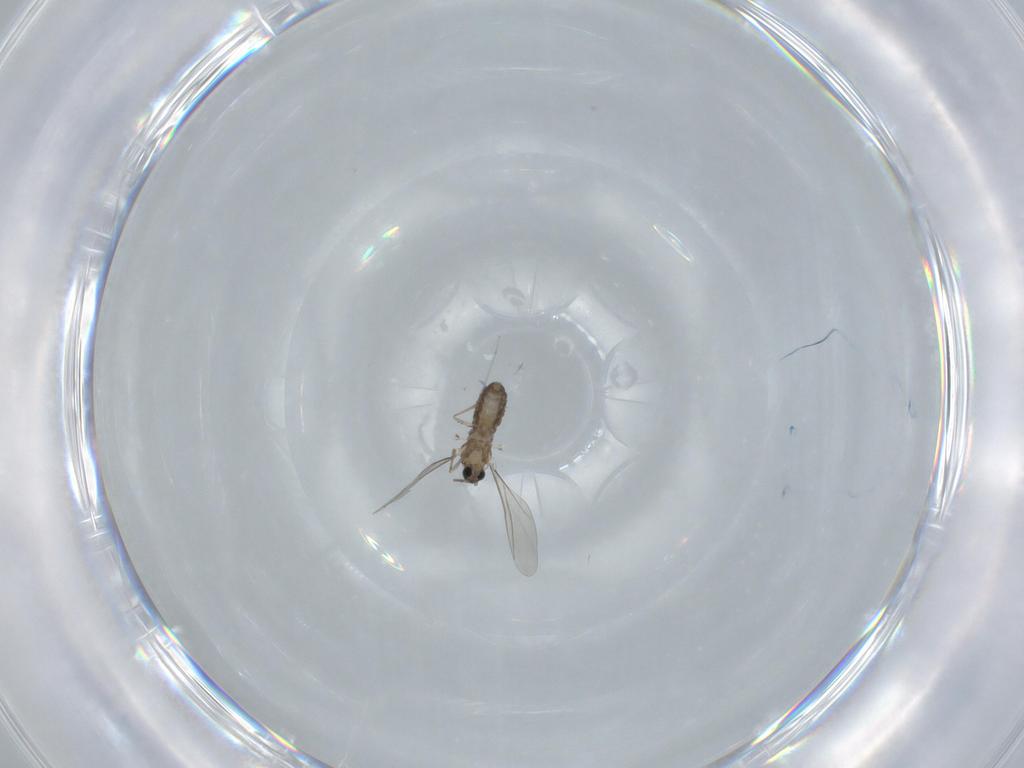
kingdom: Animalia
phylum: Arthropoda
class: Insecta
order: Diptera
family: Cecidomyiidae
